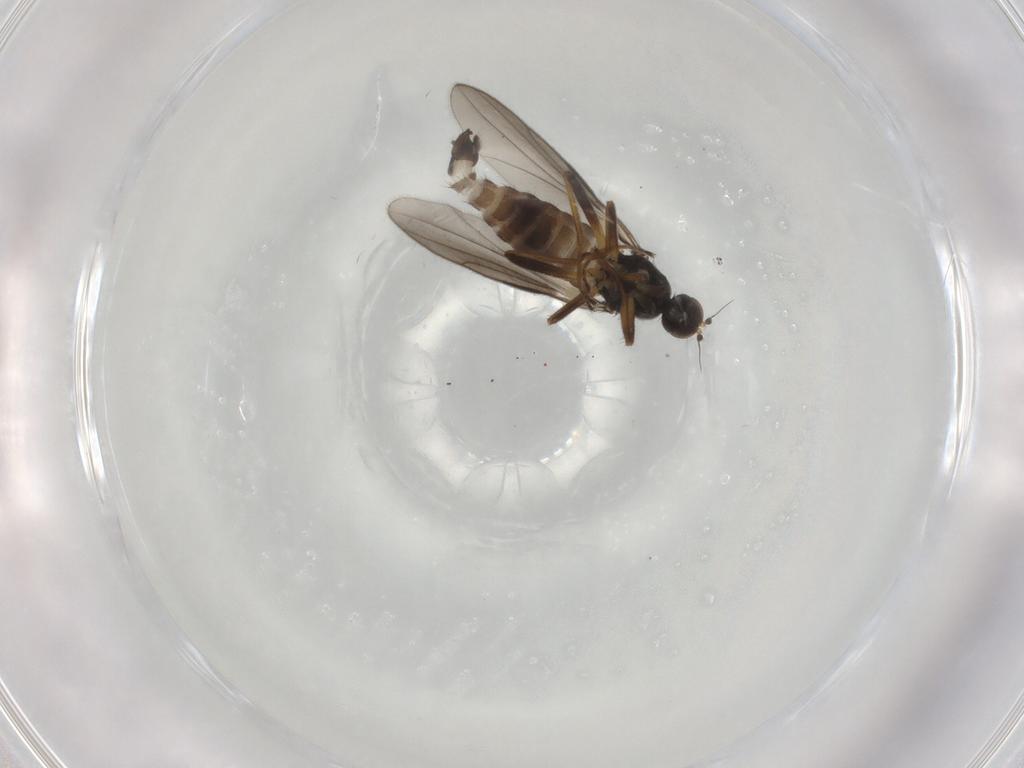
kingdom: Animalia
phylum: Arthropoda
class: Insecta
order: Diptera
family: Hybotidae
